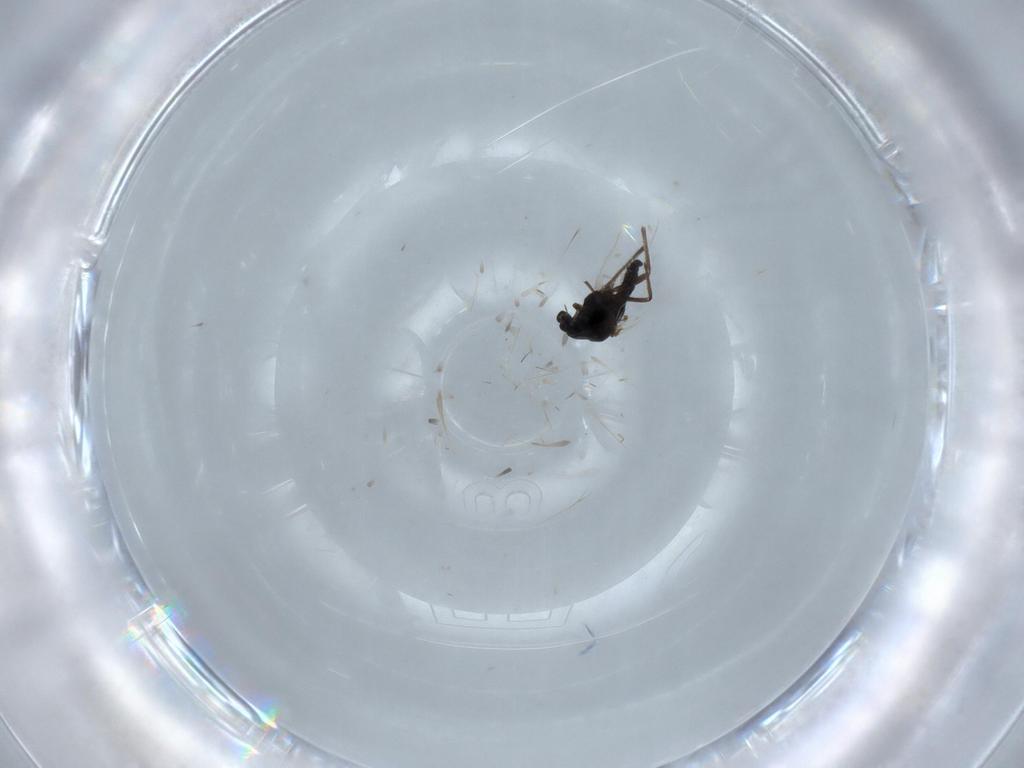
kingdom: Animalia
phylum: Arthropoda
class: Insecta
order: Diptera
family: Chironomidae
